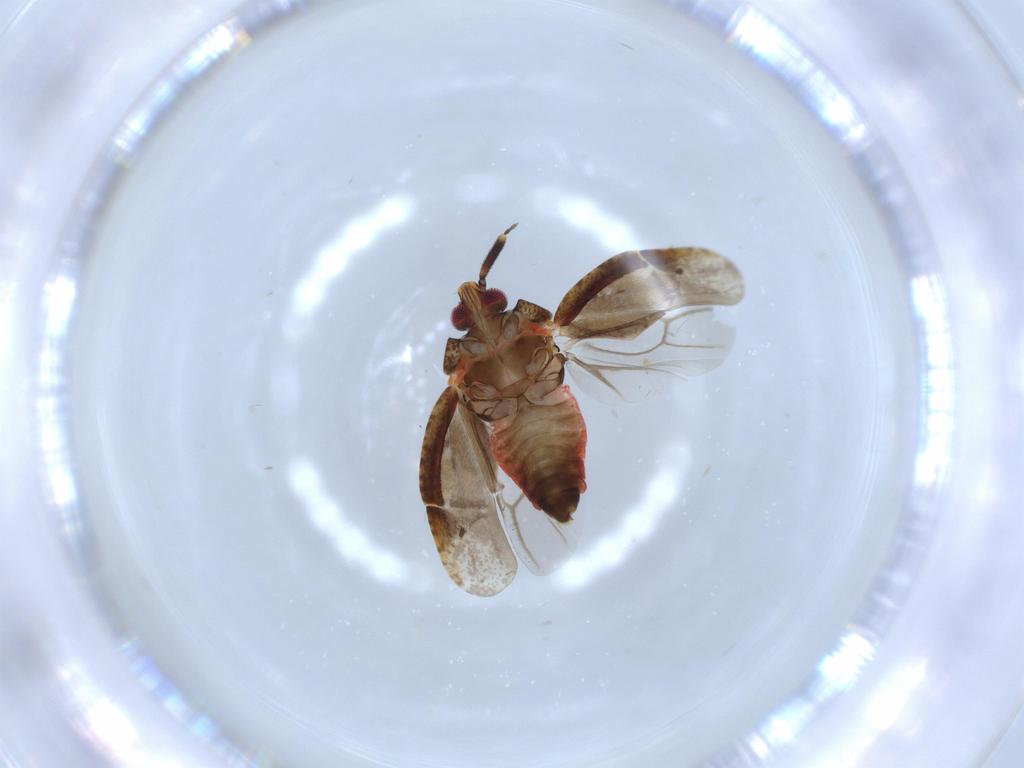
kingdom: Animalia
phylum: Arthropoda
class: Insecta
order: Hemiptera
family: Miridae
